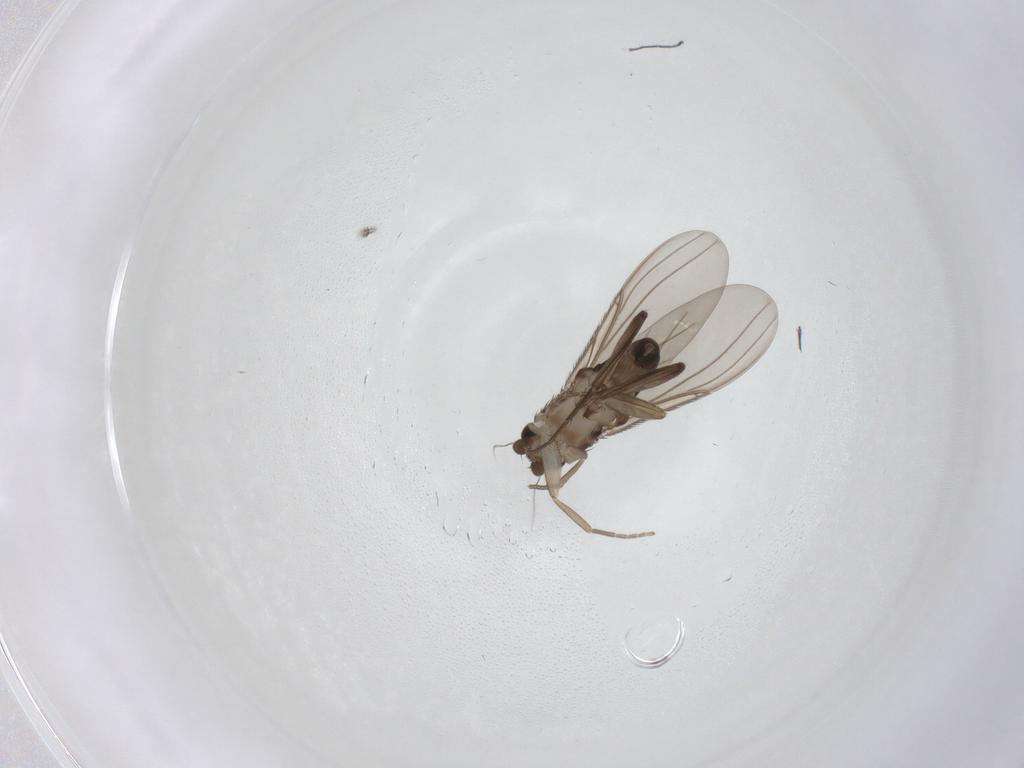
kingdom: Animalia
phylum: Arthropoda
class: Insecta
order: Diptera
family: Phoridae
